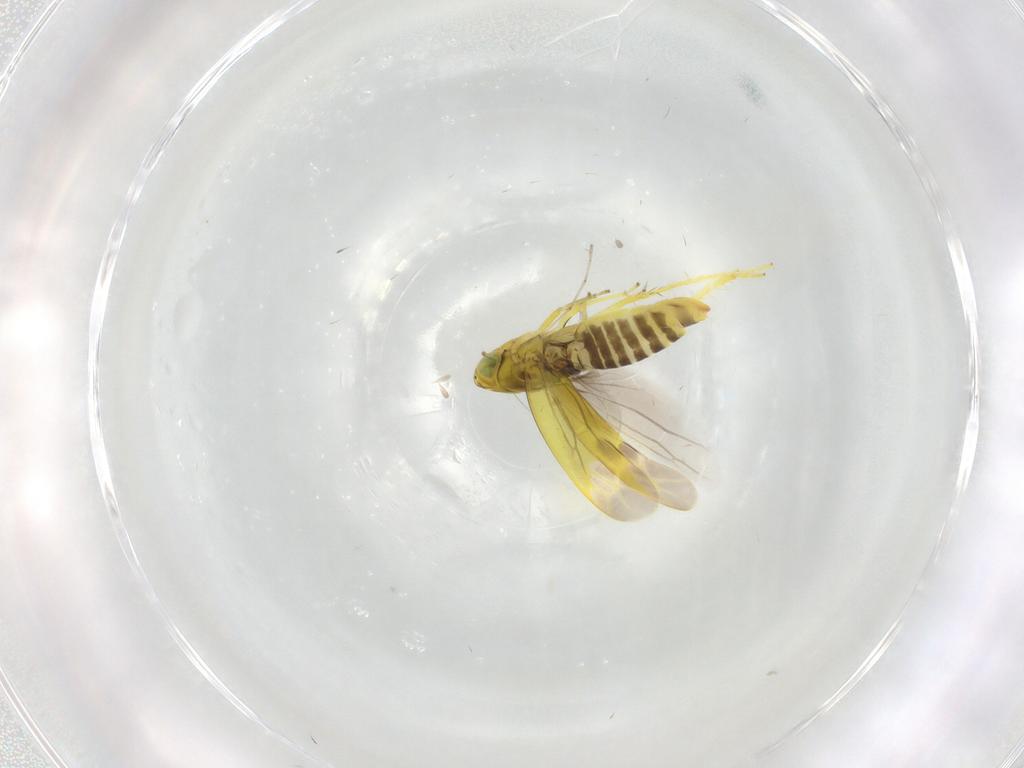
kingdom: Animalia
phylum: Arthropoda
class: Insecta
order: Hemiptera
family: Cicadellidae
